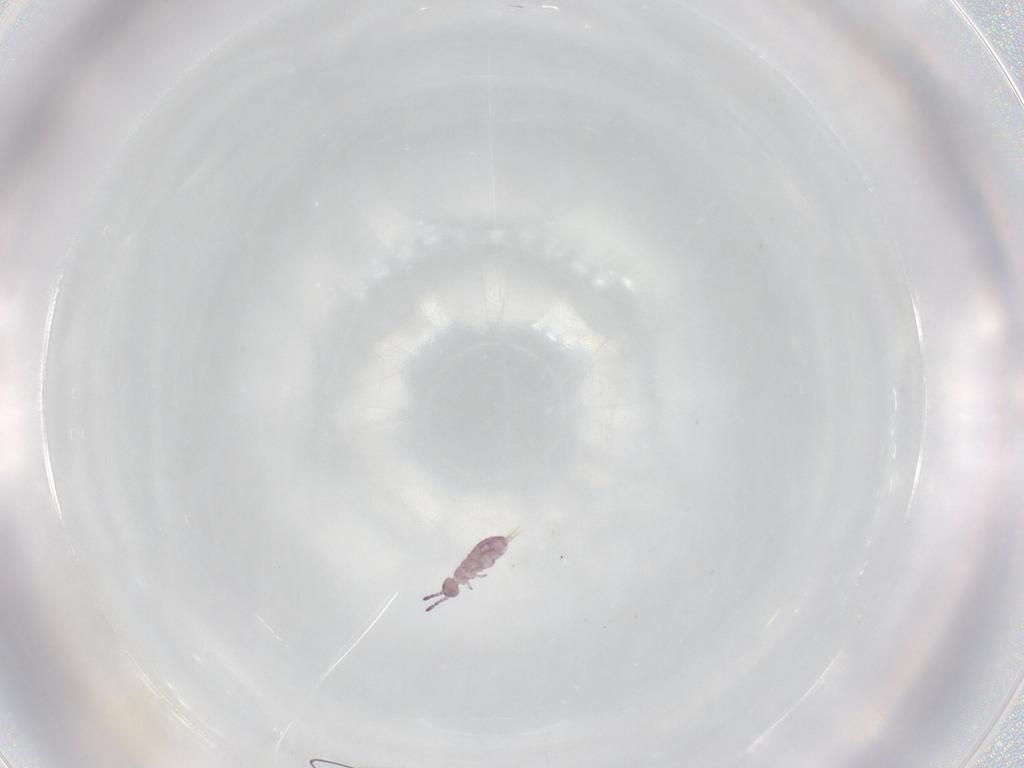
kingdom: Animalia
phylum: Arthropoda
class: Collembola
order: Entomobryomorpha
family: Isotomidae
